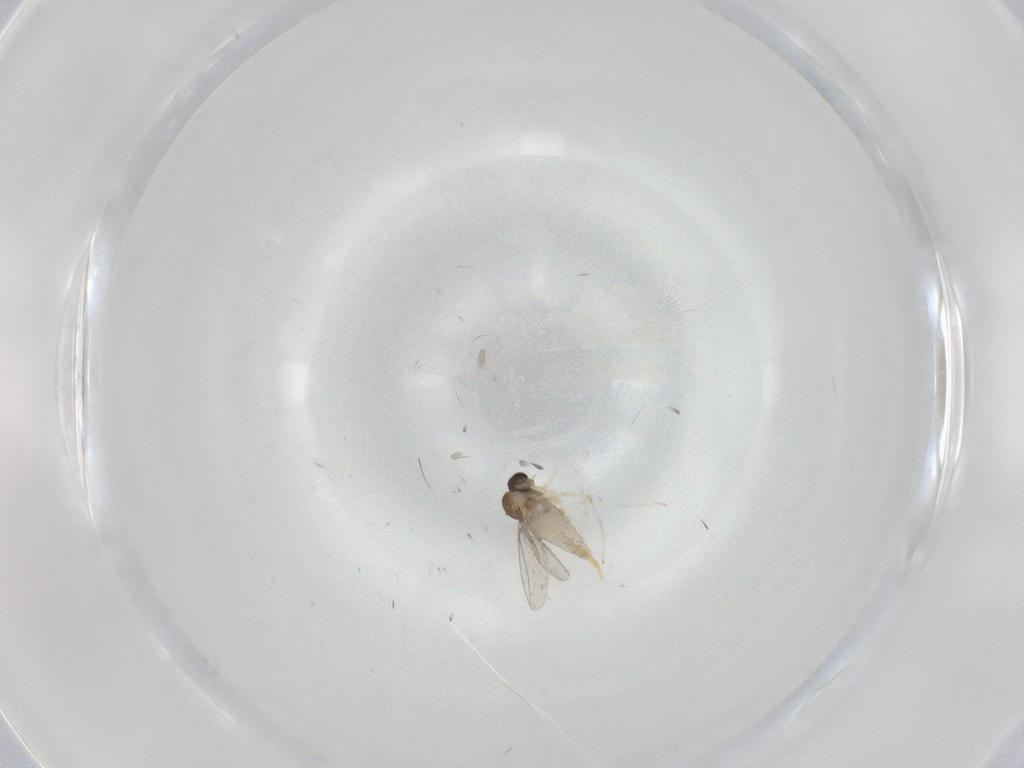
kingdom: Animalia
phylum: Arthropoda
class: Insecta
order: Diptera
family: Cecidomyiidae
